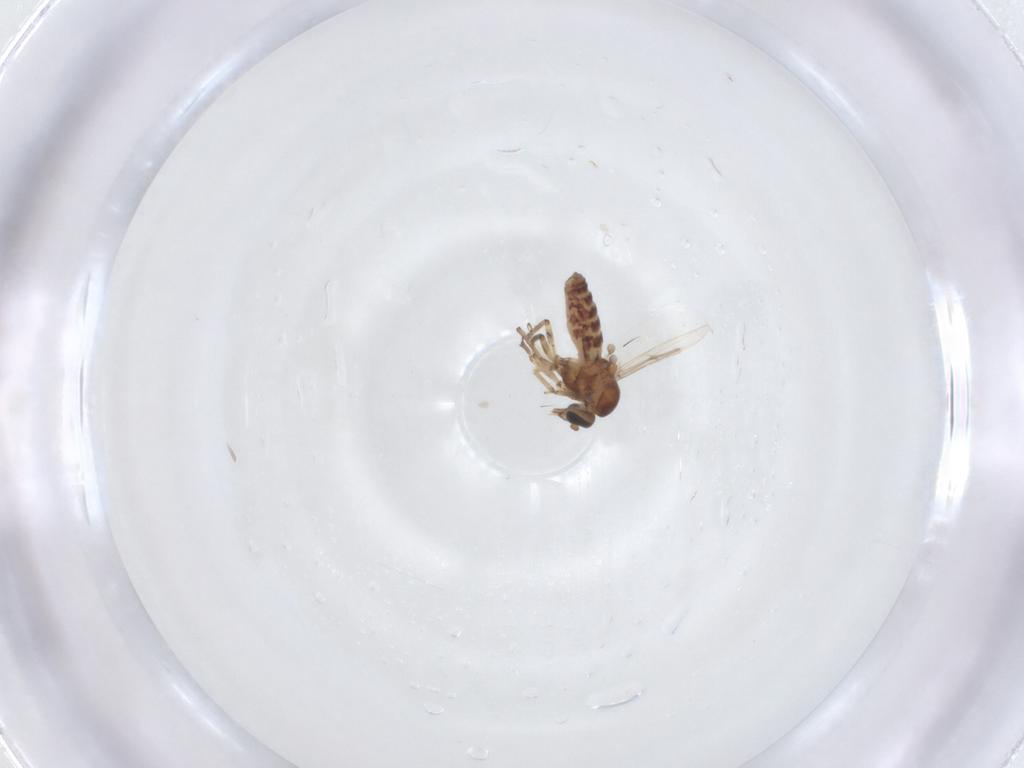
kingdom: Animalia
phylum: Arthropoda
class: Insecta
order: Diptera
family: Ceratopogonidae
